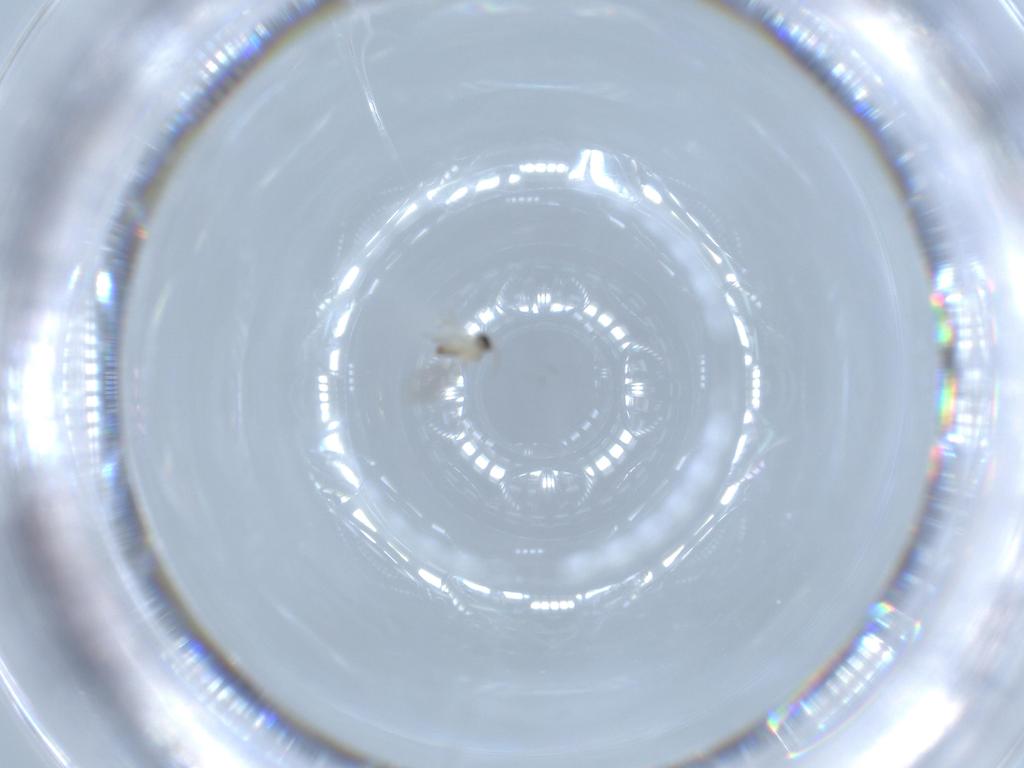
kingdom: Animalia
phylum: Arthropoda
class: Insecta
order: Diptera
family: Cecidomyiidae
